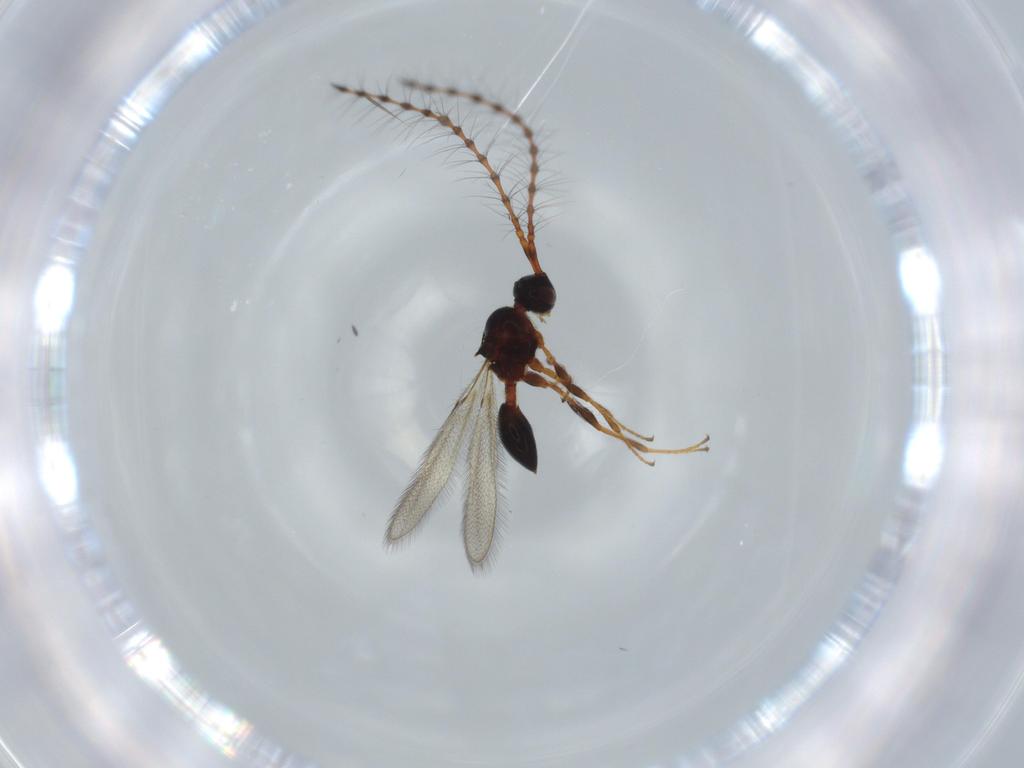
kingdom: Animalia
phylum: Arthropoda
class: Insecta
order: Hymenoptera
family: Diapriidae
